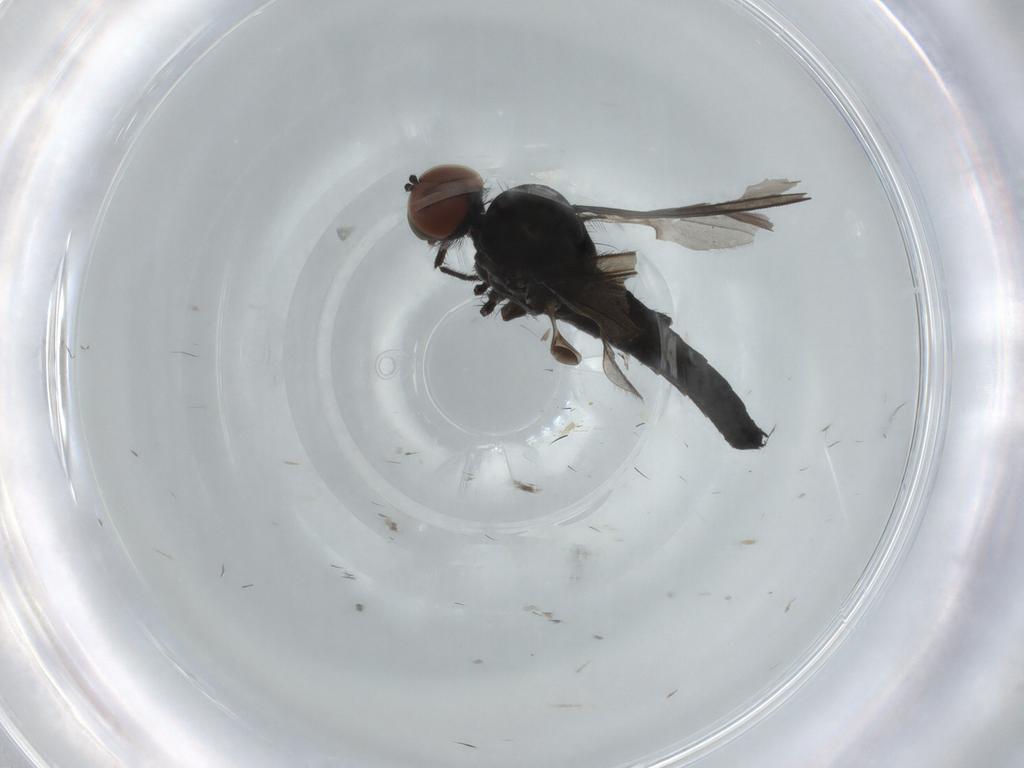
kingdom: Animalia
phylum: Arthropoda
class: Insecta
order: Diptera
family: Hybotidae
